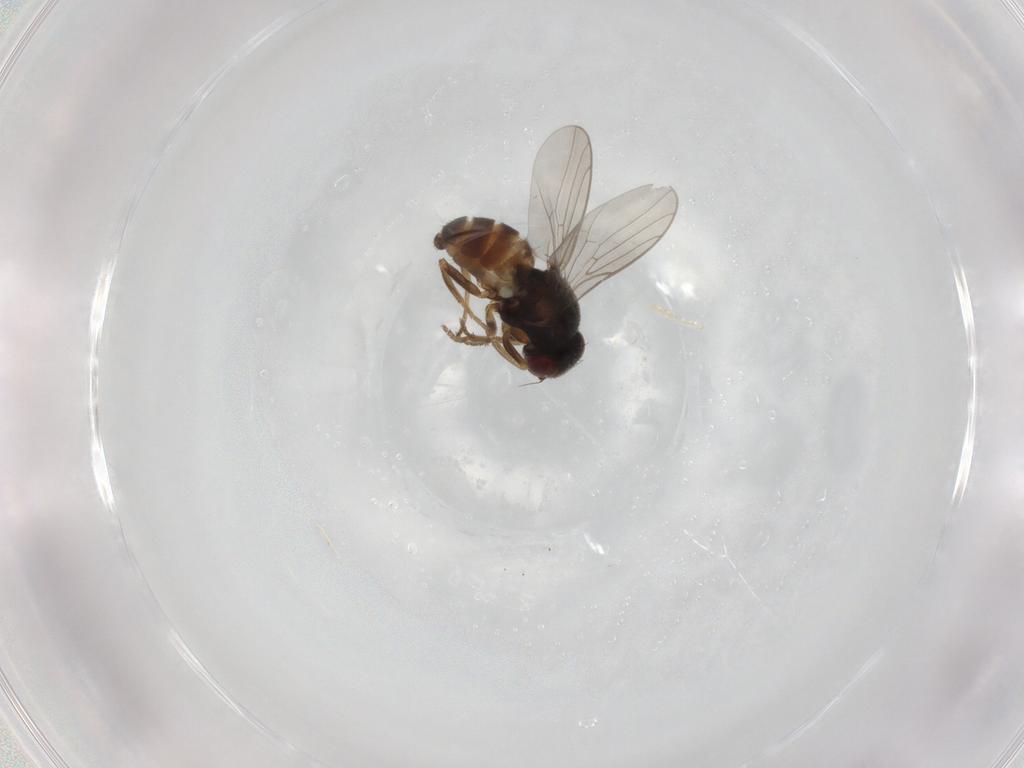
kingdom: Animalia
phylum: Arthropoda
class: Insecta
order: Diptera
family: Chloropidae
